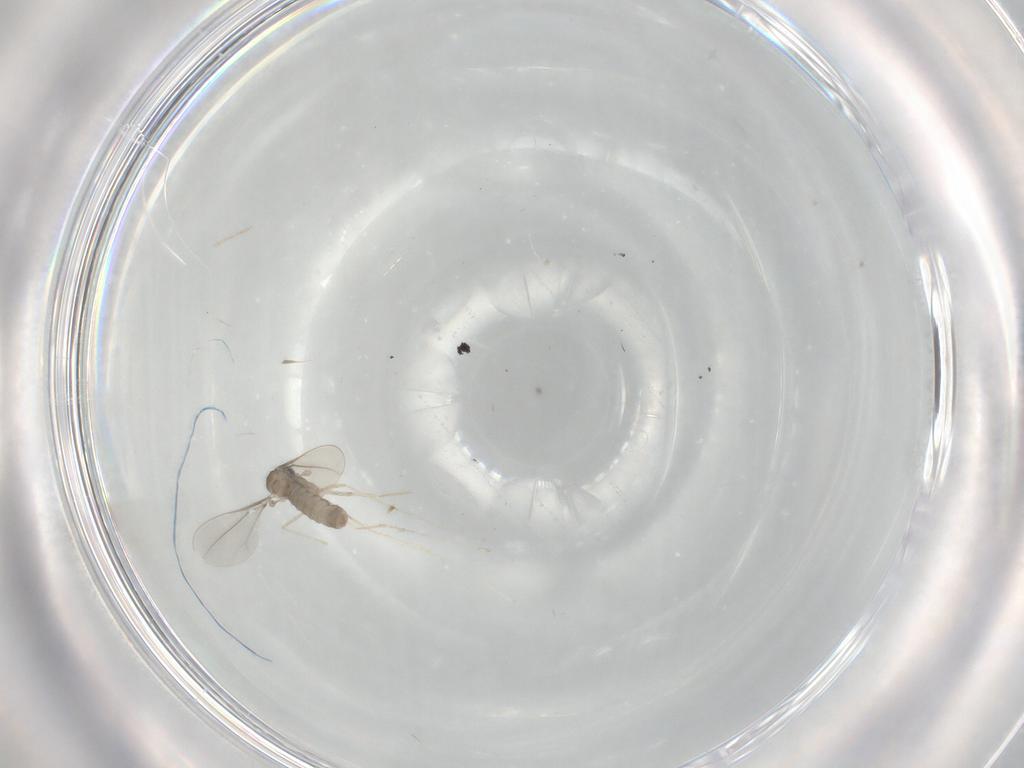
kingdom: Animalia
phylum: Arthropoda
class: Insecta
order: Diptera
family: Cecidomyiidae
